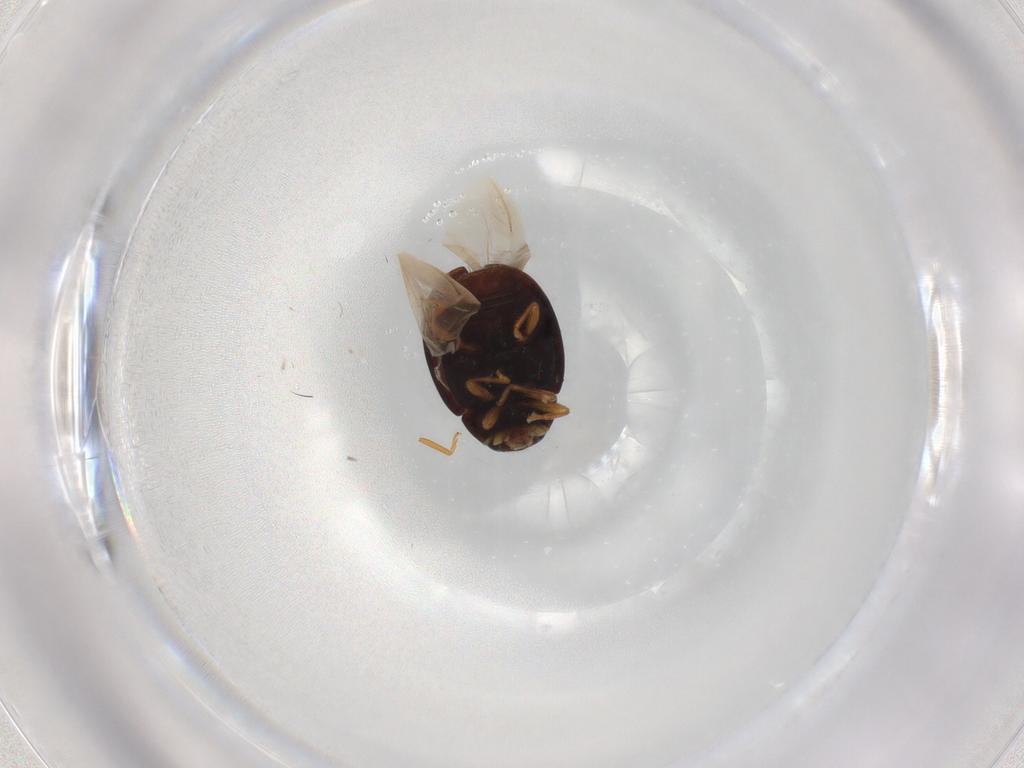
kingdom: Animalia
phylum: Arthropoda
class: Insecta
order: Coleoptera
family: Coccinellidae
